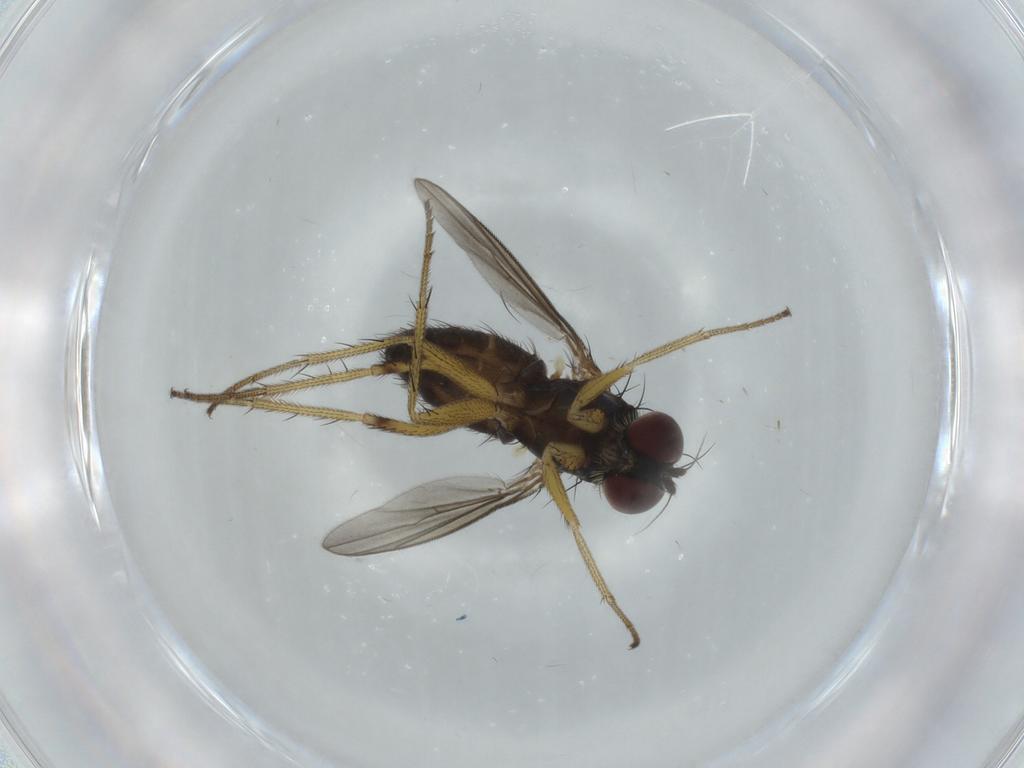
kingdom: Animalia
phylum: Arthropoda
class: Insecta
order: Diptera
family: Dolichopodidae
